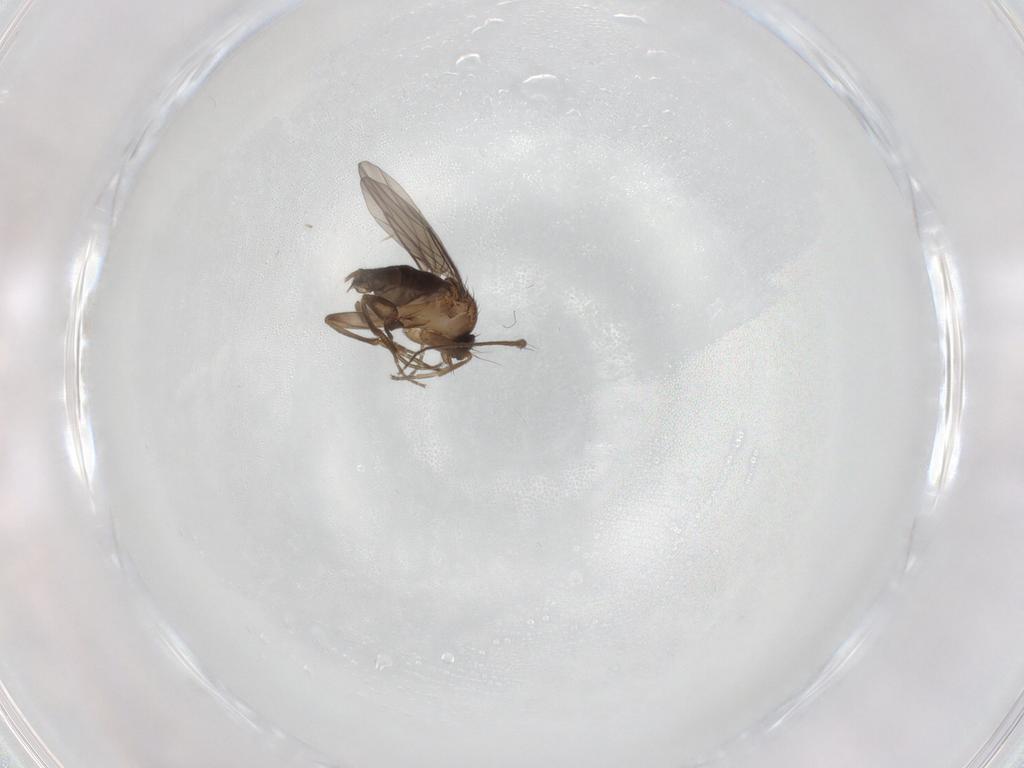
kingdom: Animalia
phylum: Arthropoda
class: Insecta
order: Diptera
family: Phoridae
